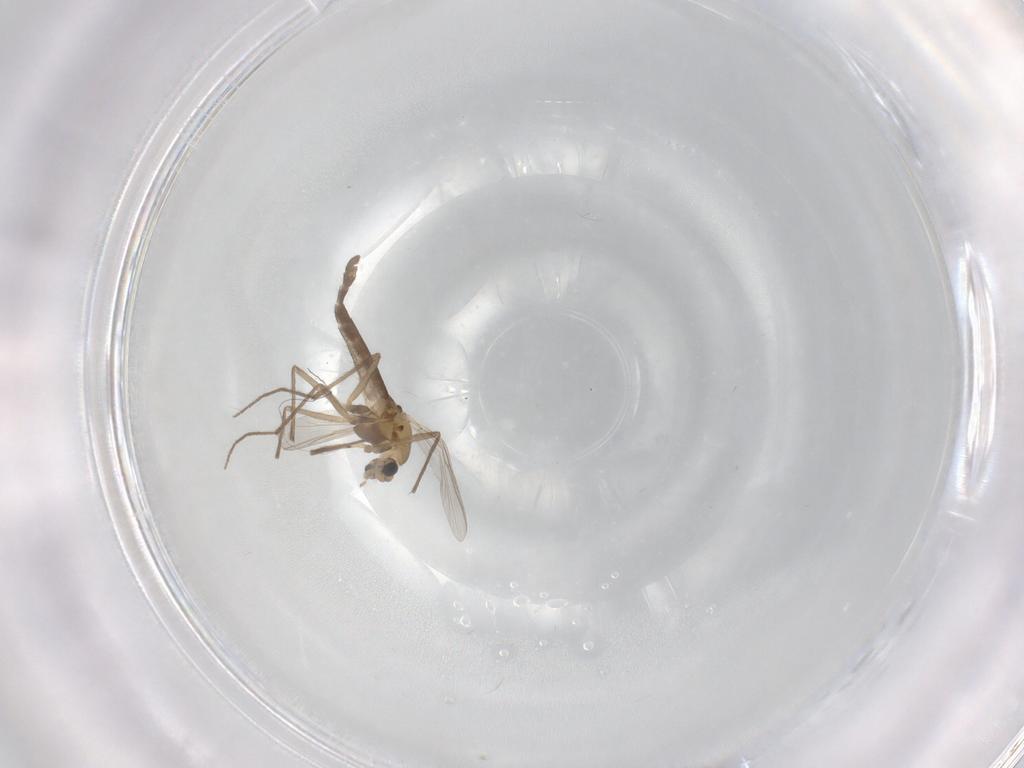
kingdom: Animalia
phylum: Arthropoda
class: Insecta
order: Diptera
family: Chironomidae
